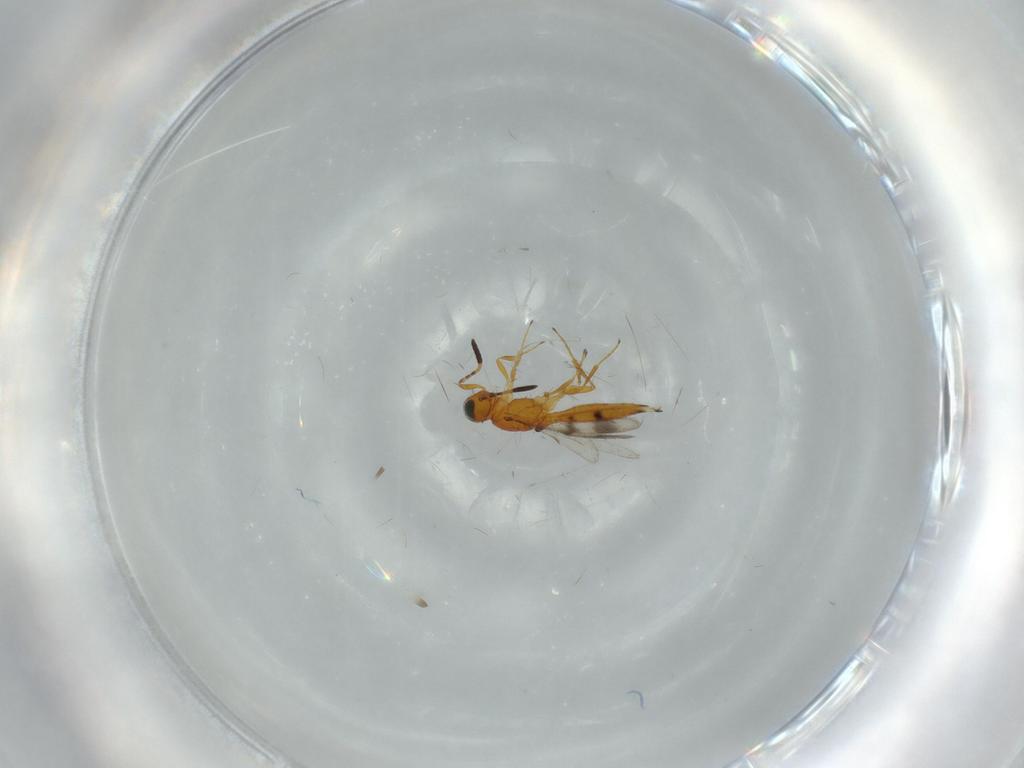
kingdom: Animalia
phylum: Arthropoda
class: Insecta
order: Hymenoptera
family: Scelionidae
